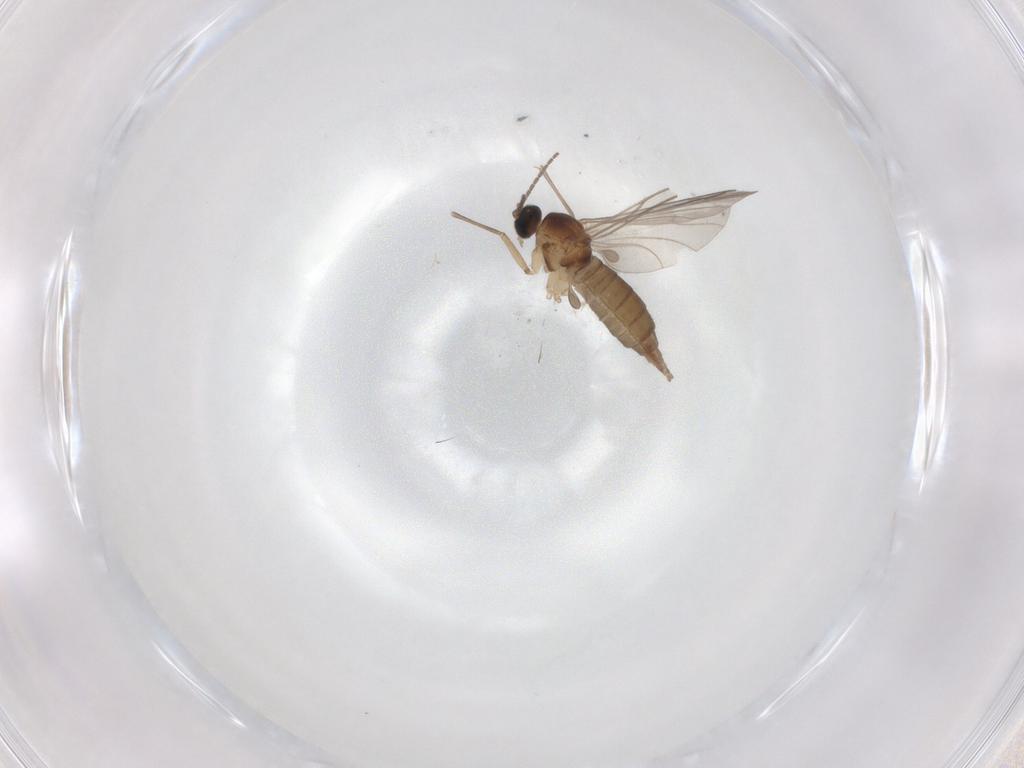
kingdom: Animalia
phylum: Arthropoda
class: Insecta
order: Diptera
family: Sciaridae
